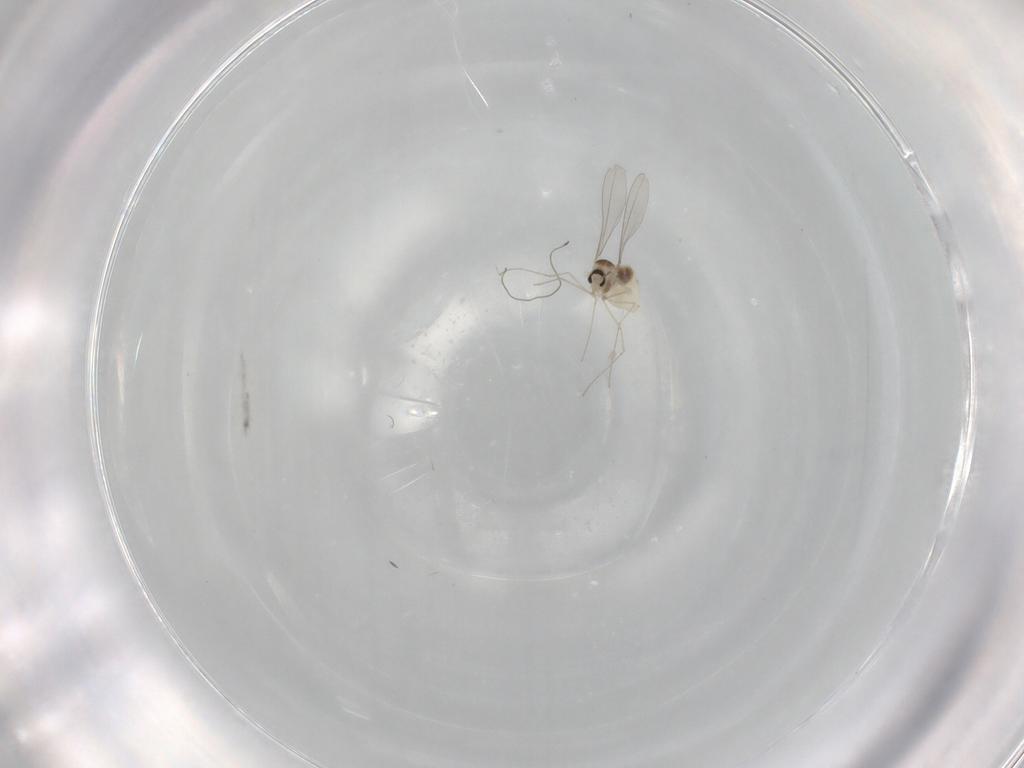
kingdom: Animalia
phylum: Arthropoda
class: Insecta
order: Diptera
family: Psychodidae
